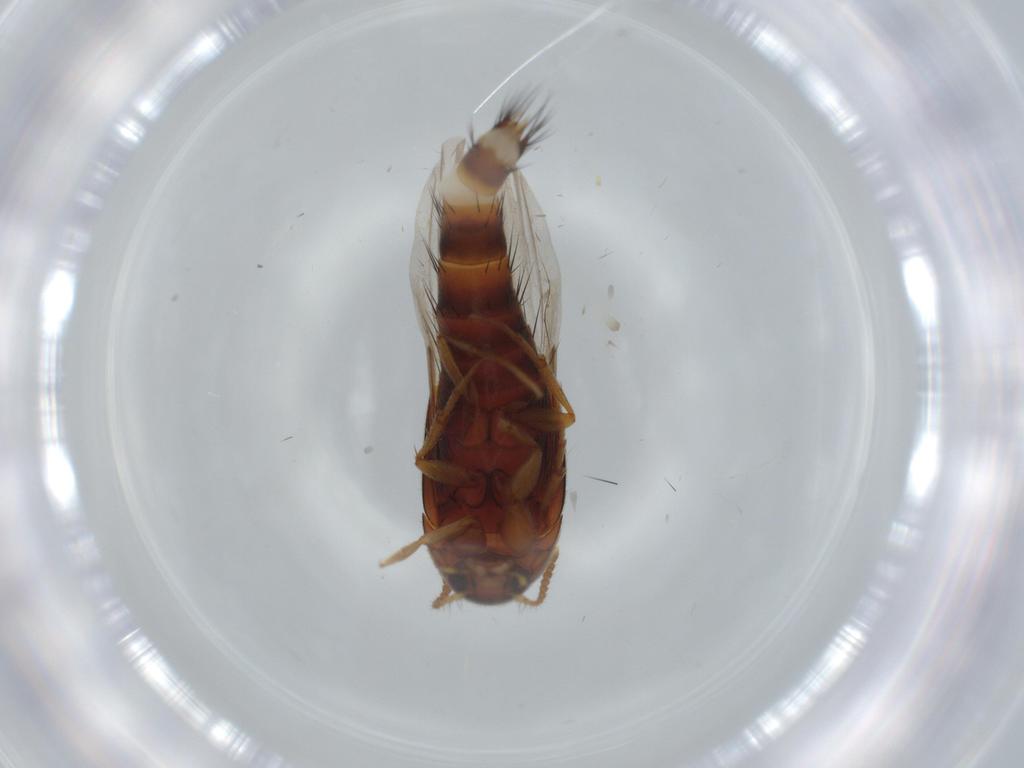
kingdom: Animalia
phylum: Arthropoda
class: Insecta
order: Coleoptera
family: Staphylinidae
